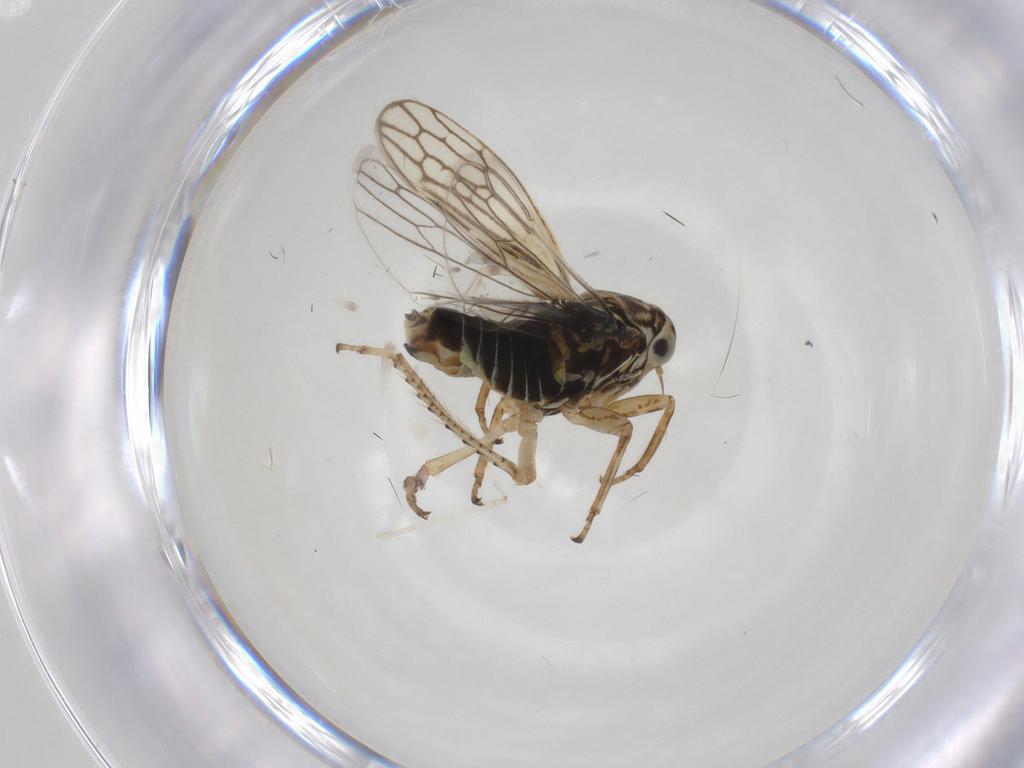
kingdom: Animalia
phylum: Arthropoda
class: Insecta
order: Hemiptera
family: Cicadellidae
